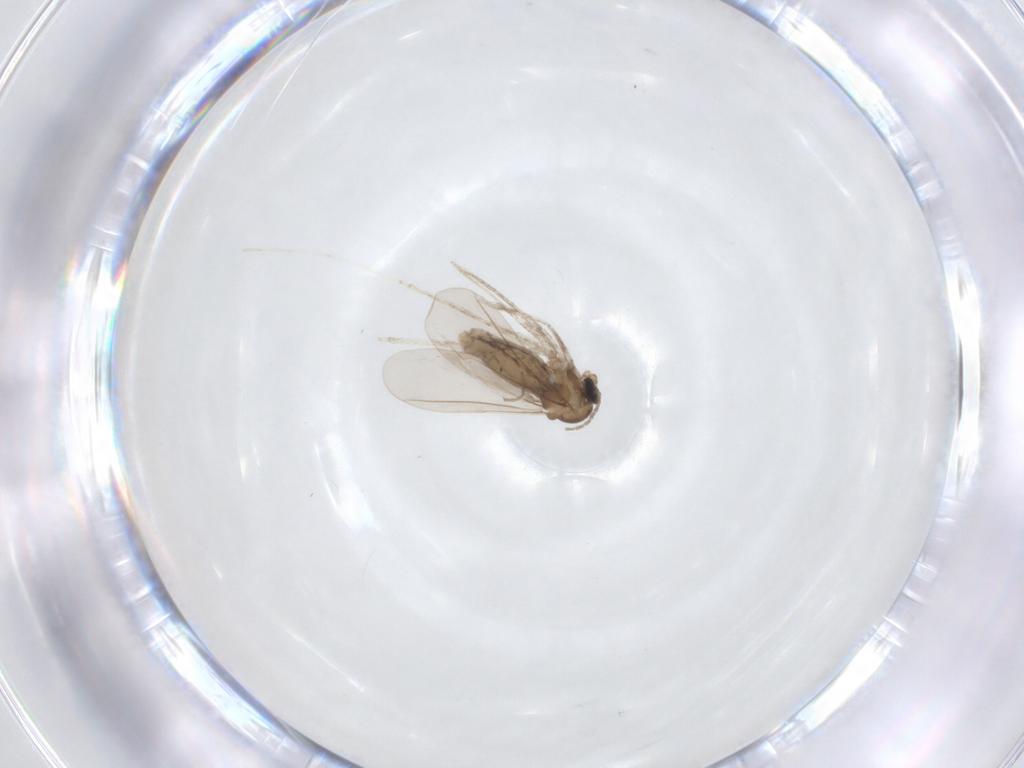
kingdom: Animalia
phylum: Arthropoda
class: Insecta
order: Diptera
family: Cecidomyiidae
